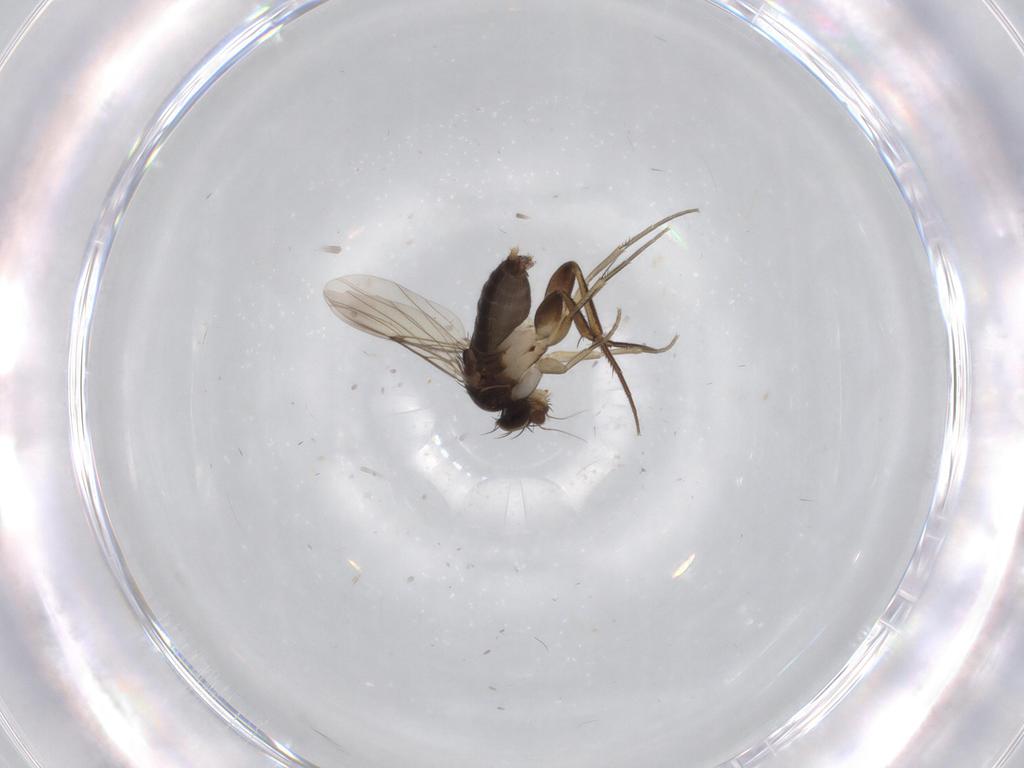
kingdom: Animalia
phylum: Arthropoda
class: Insecta
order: Diptera
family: Phoridae
